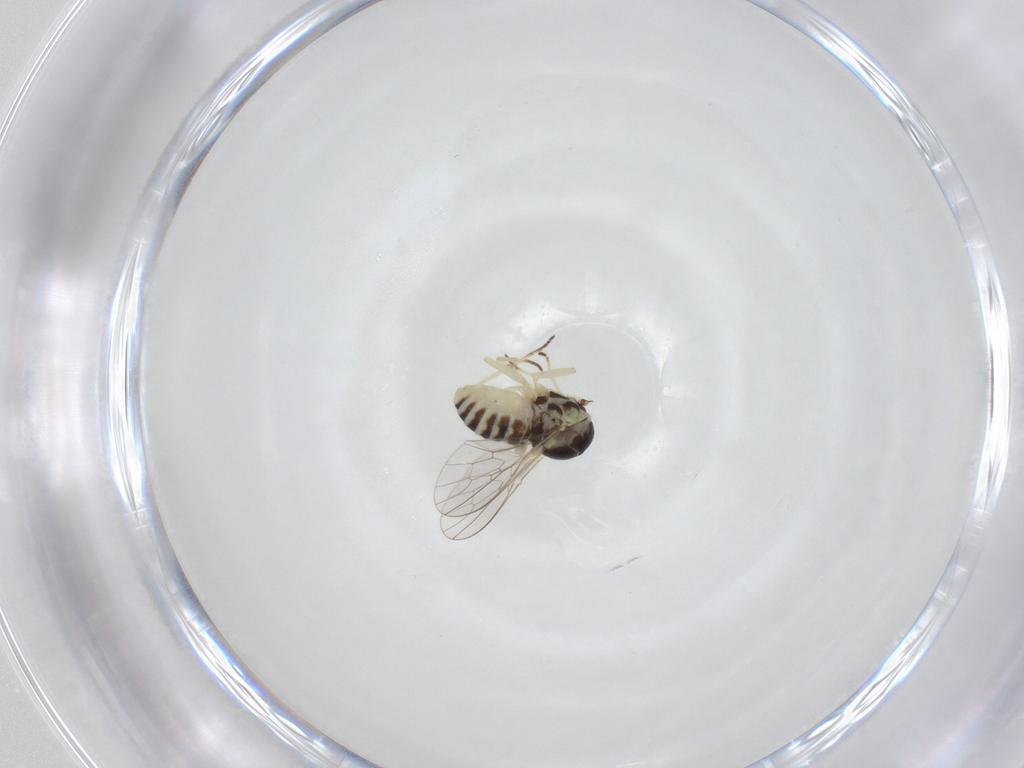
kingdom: Animalia
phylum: Arthropoda
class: Insecta
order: Diptera
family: Mythicomyiidae
